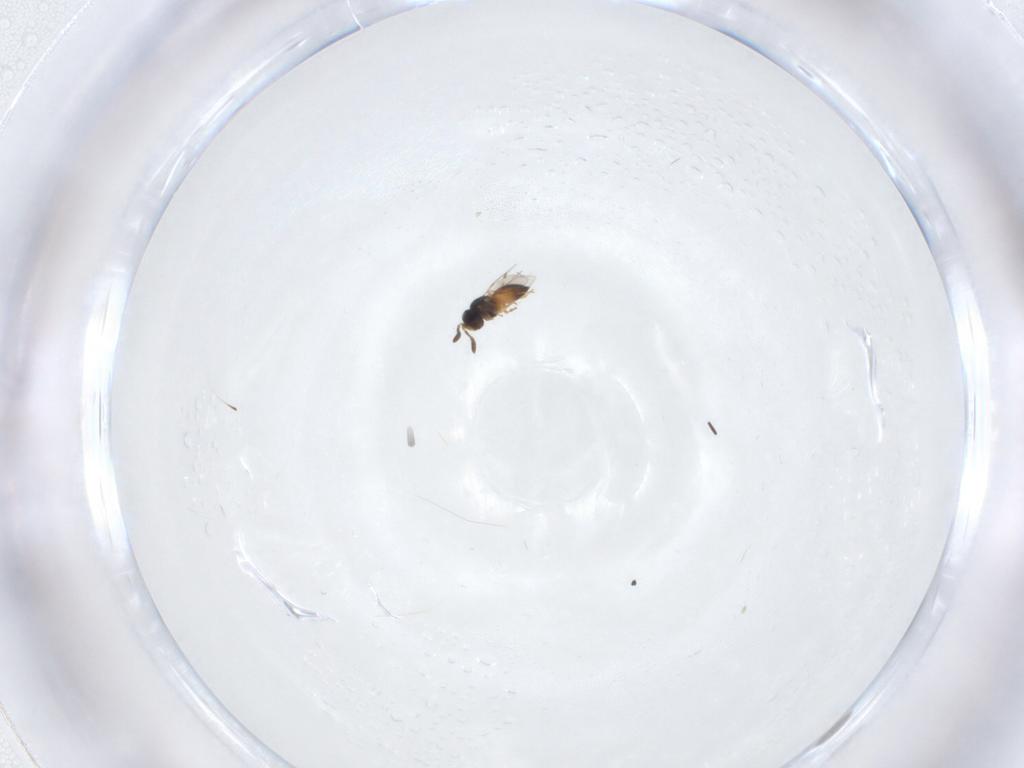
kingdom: Animalia
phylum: Arthropoda
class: Insecta
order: Hymenoptera
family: Scelionidae
